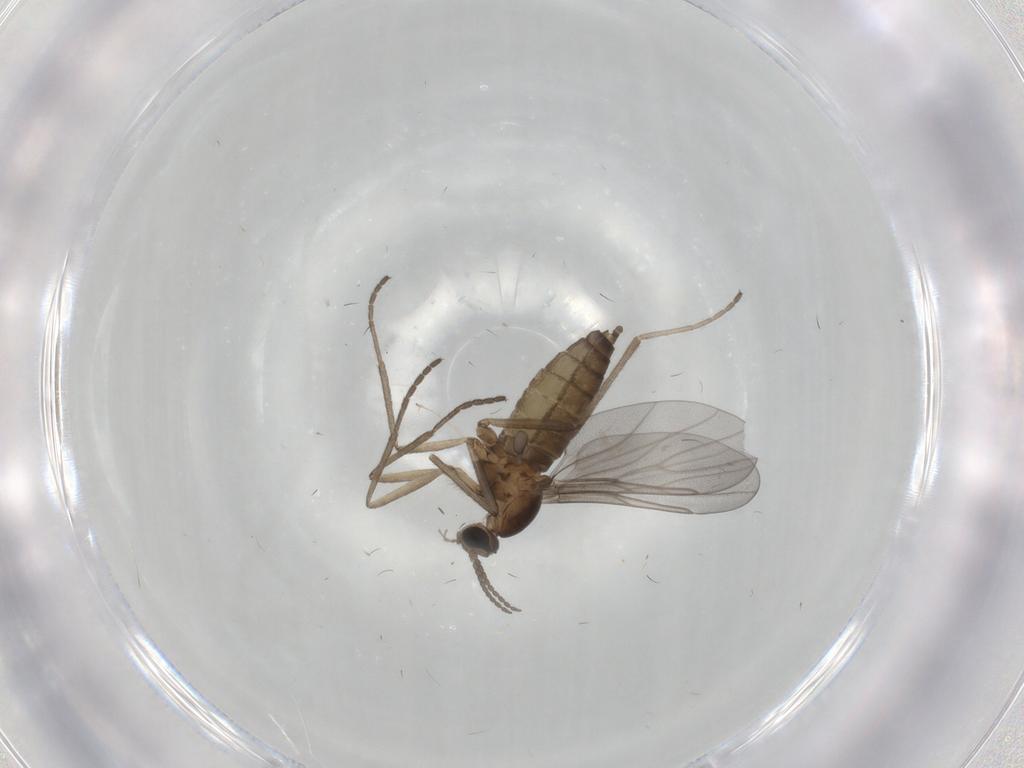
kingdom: Animalia
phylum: Arthropoda
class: Insecta
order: Diptera
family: Cecidomyiidae
